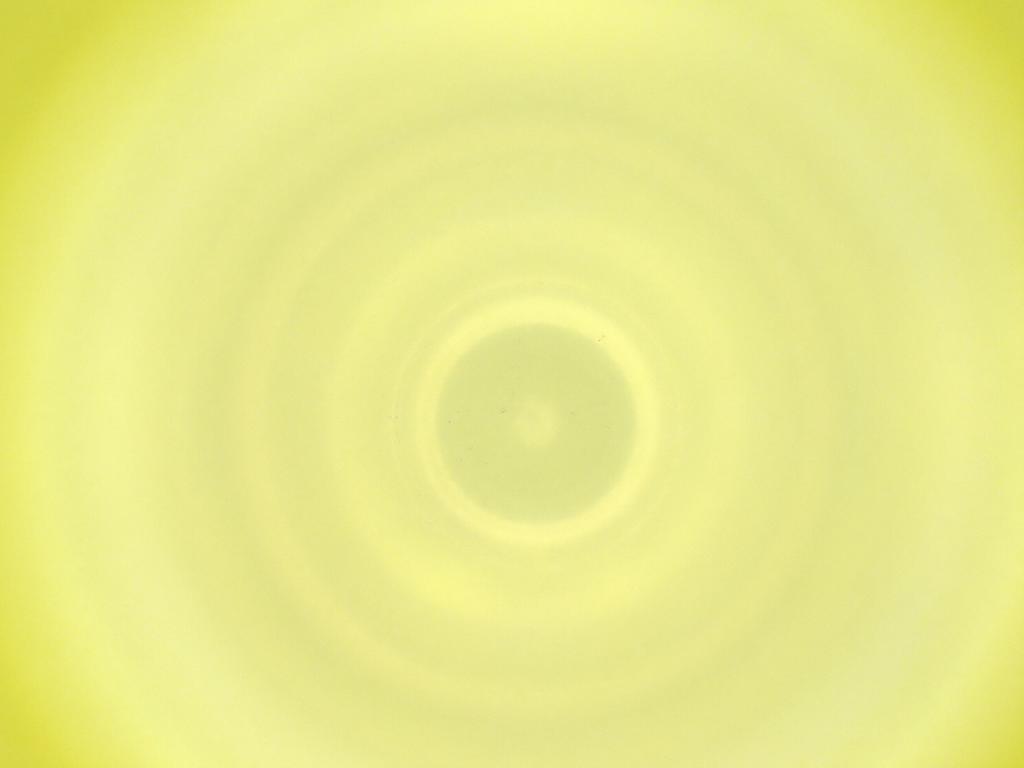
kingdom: Animalia
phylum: Arthropoda
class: Insecta
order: Diptera
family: Cecidomyiidae
